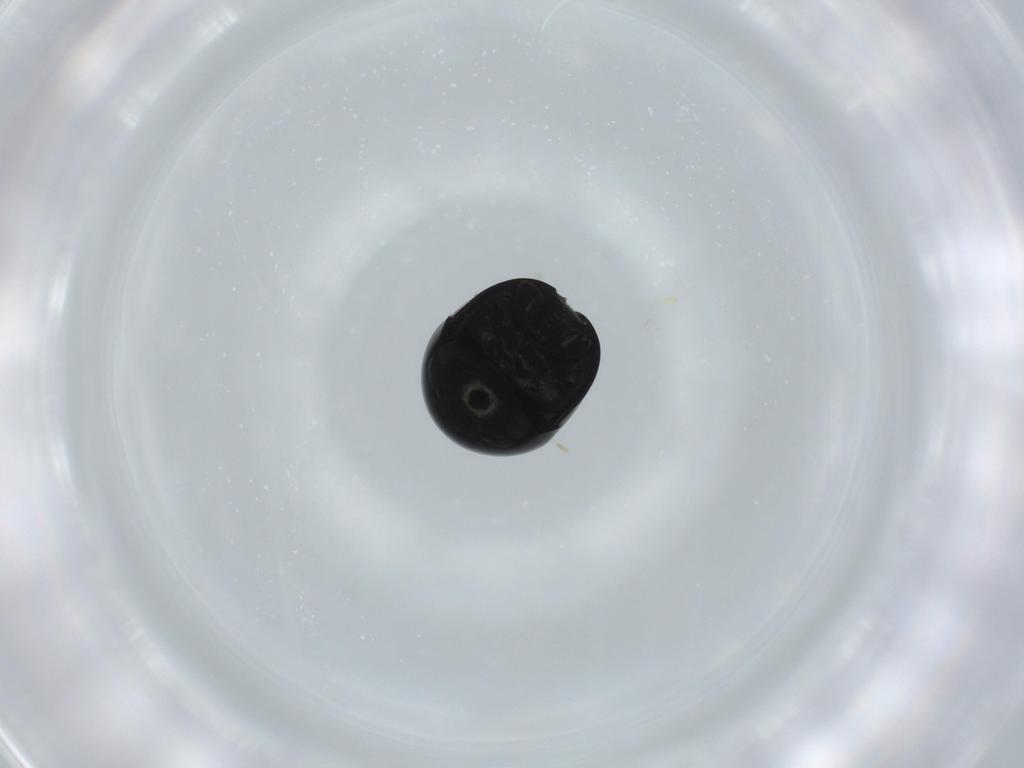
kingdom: Animalia
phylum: Arthropoda
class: Insecta
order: Coleoptera
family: Cybocephalidae
